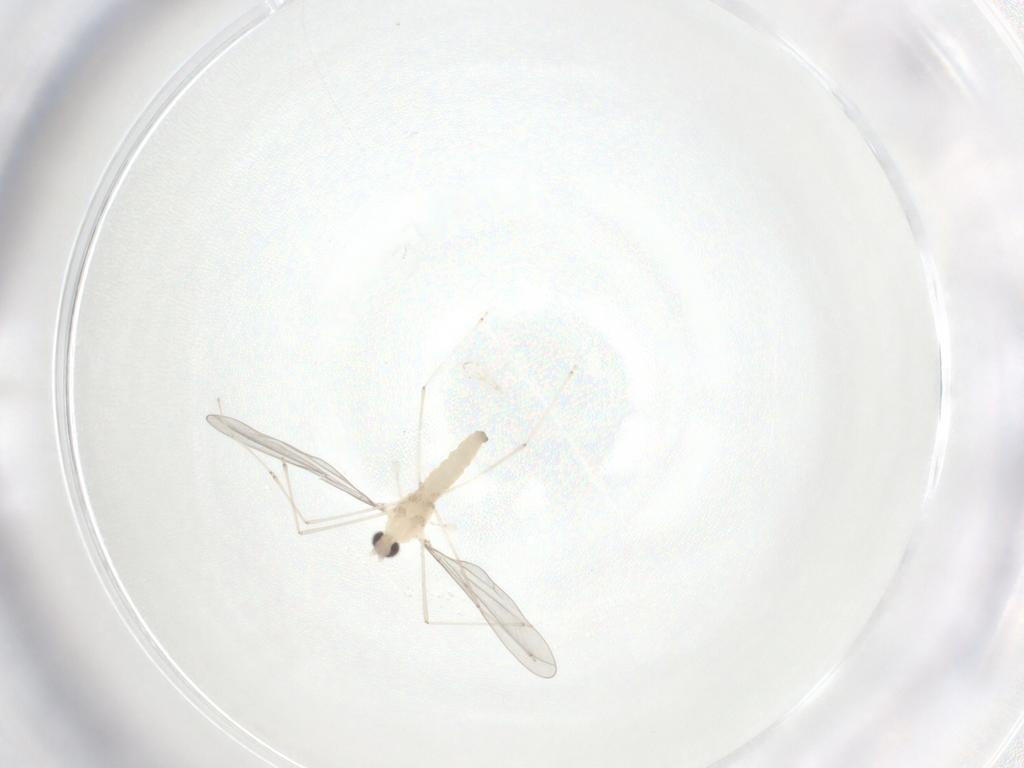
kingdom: Animalia
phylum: Arthropoda
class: Insecta
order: Diptera
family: Cecidomyiidae
